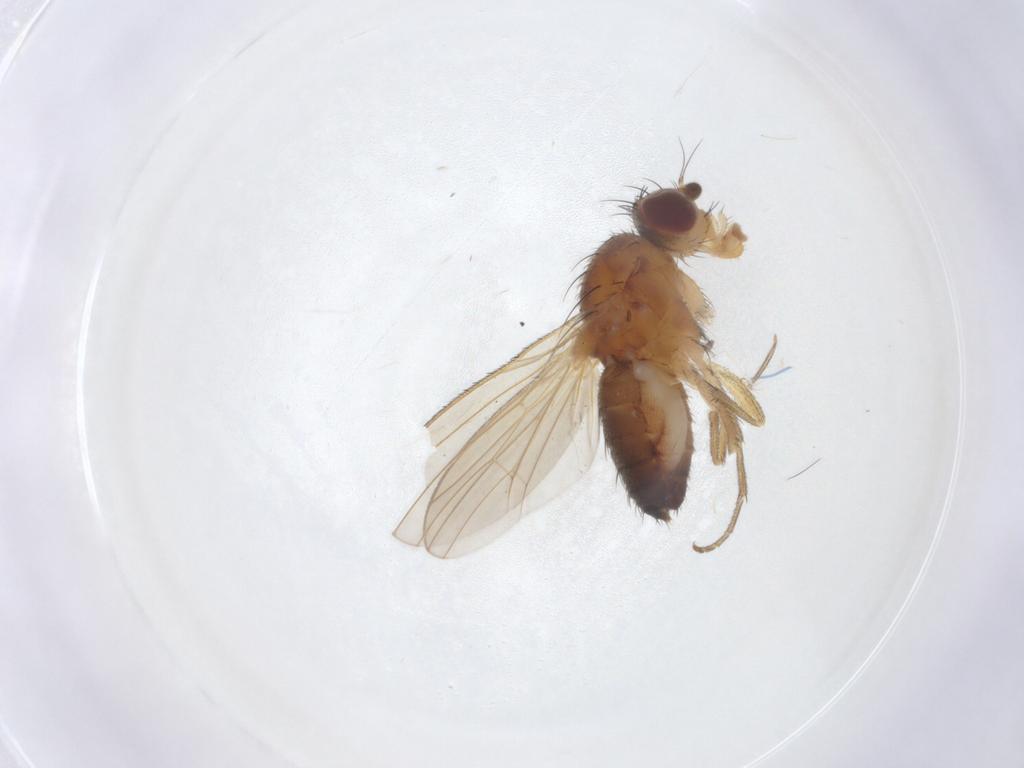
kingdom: Animalia
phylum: Arthropoda
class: Insecta
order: Diptera
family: Heleomyzidae
